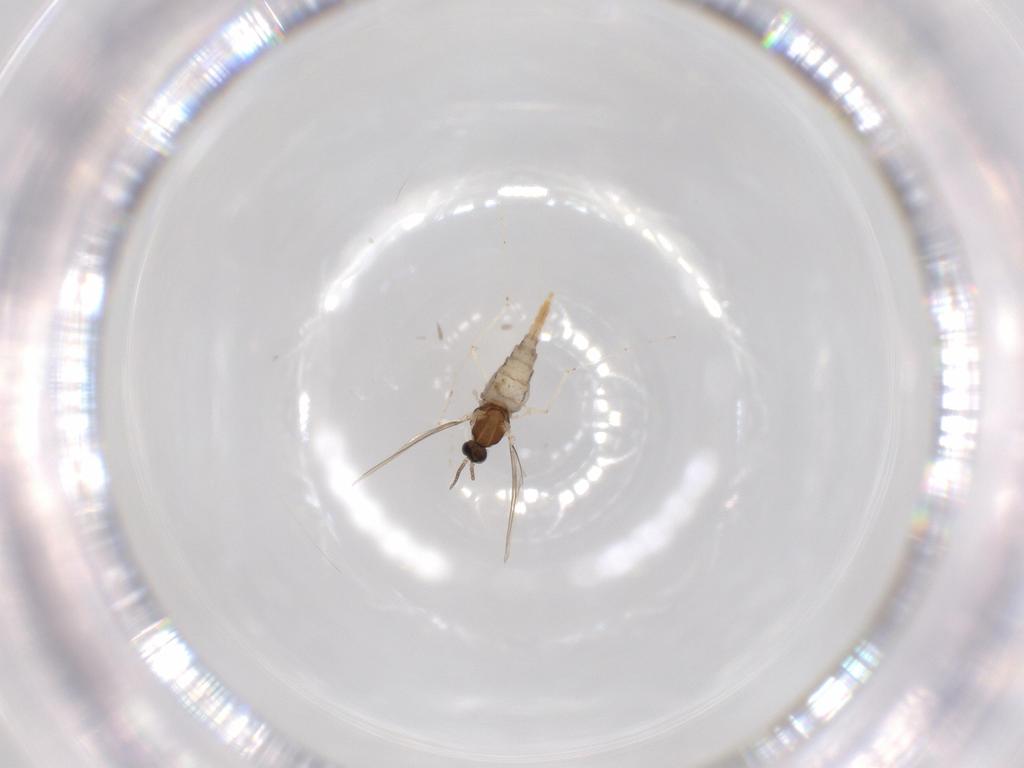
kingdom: Animalia
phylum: Arthropoda
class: Insecta
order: Diptera
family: Cecidomyiidae
